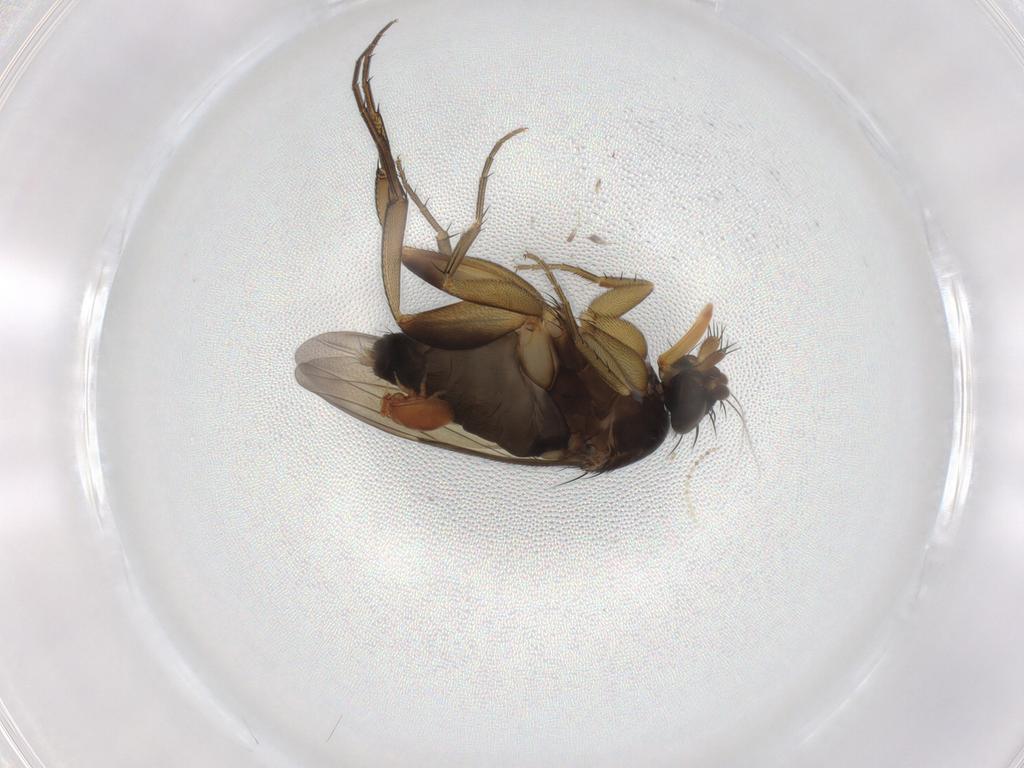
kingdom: Animalia
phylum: Arthropoda
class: Insecta
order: Diptera
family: Phoridae
